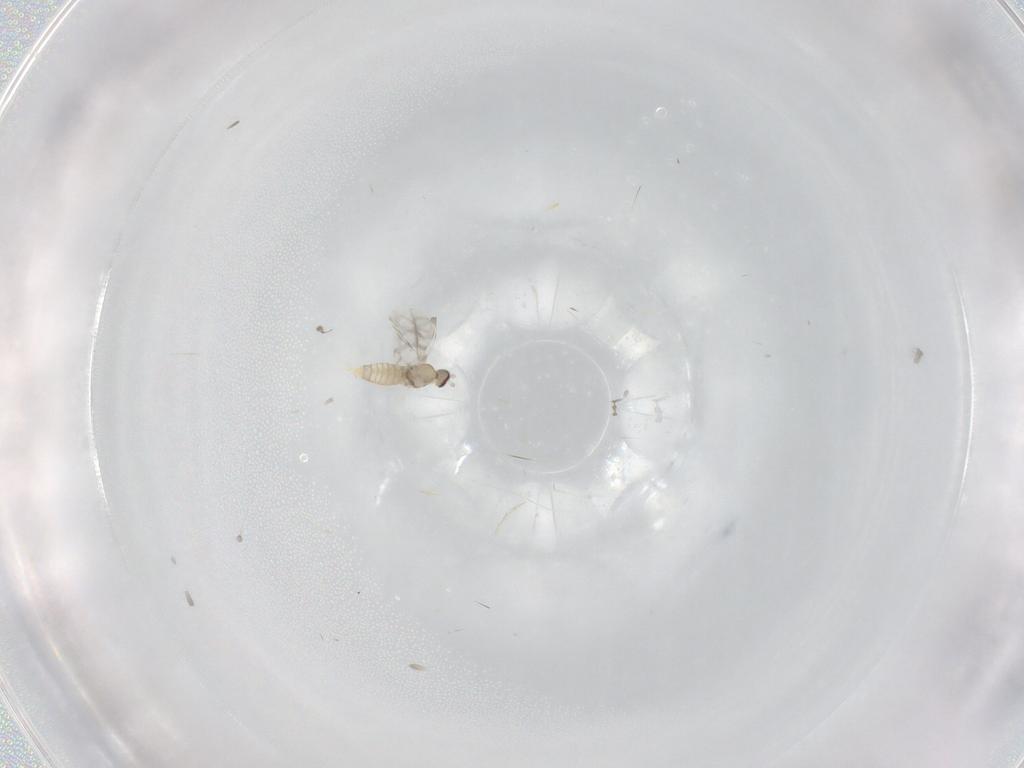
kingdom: Animalia
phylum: Arthropoda
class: Insecta
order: Diptera
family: Cecidomyiidae
